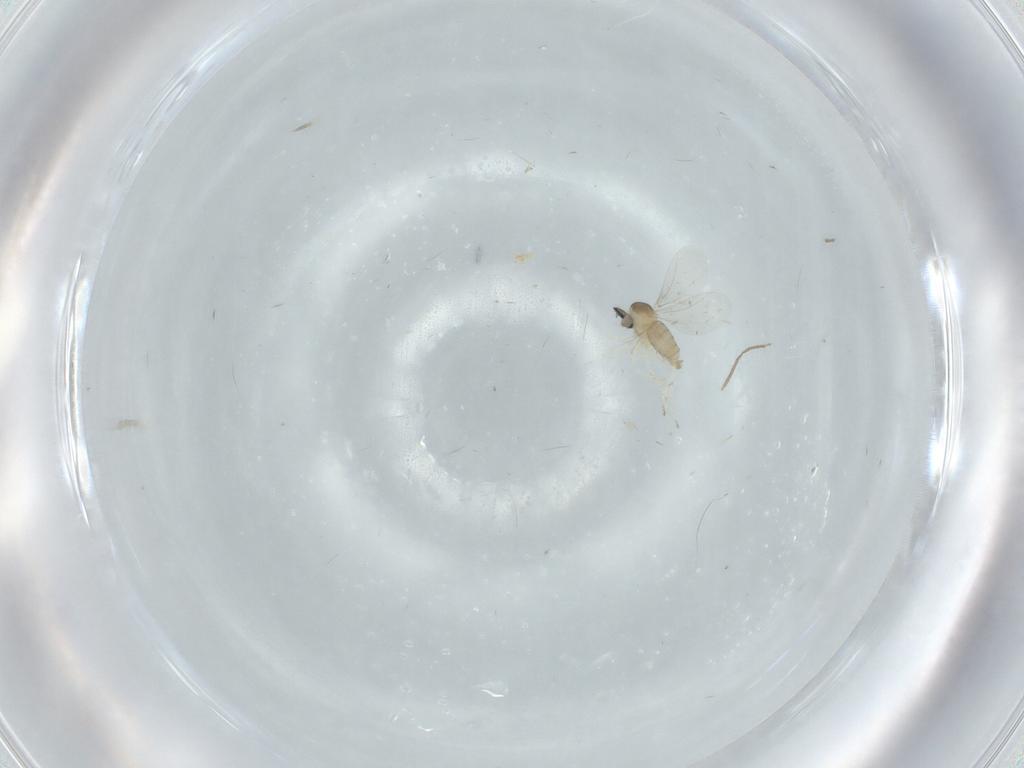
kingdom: Animalia
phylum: Arthropoda
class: Insecta
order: Diptera
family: Cecidomyiidae
